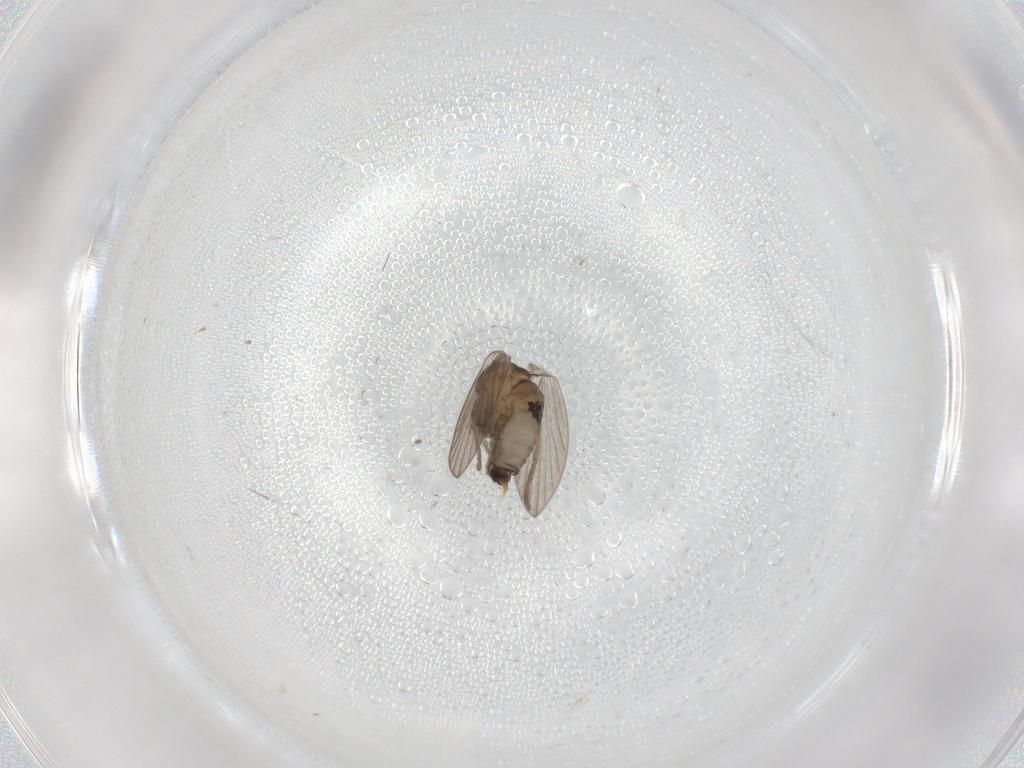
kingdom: Animalia
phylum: Arthropoda
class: Insecta
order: Diptera
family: Psychodidae
